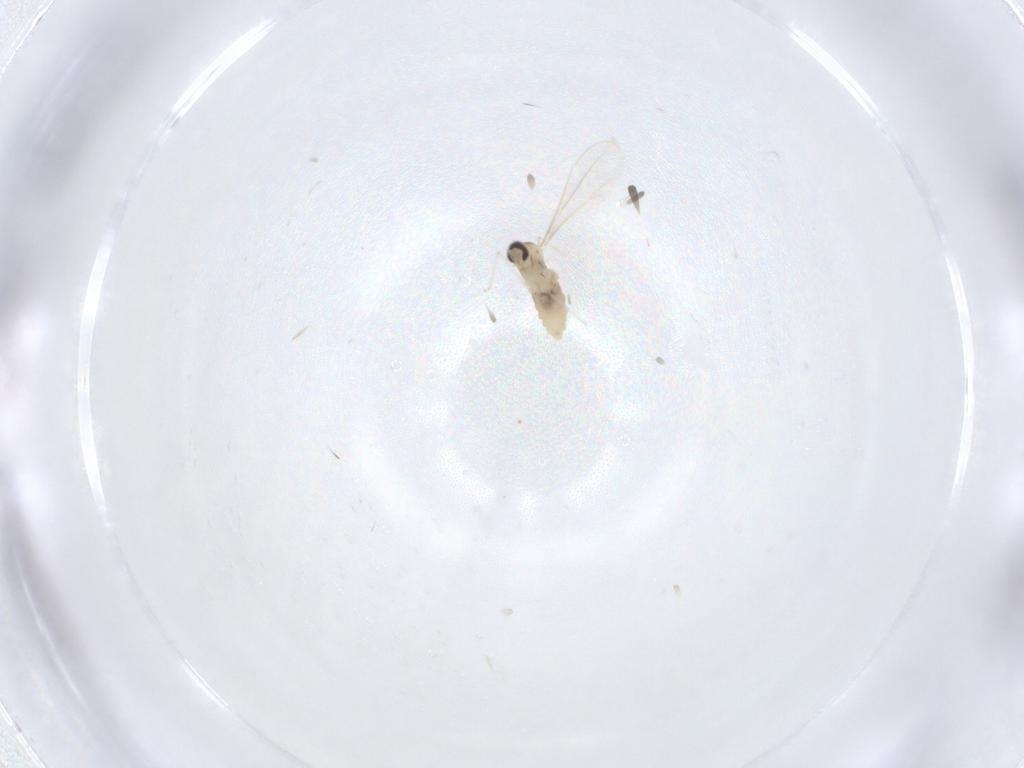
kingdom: Animalia
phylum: Arthropoda
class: Insecta
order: Diptera
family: Cecidomyiidae
